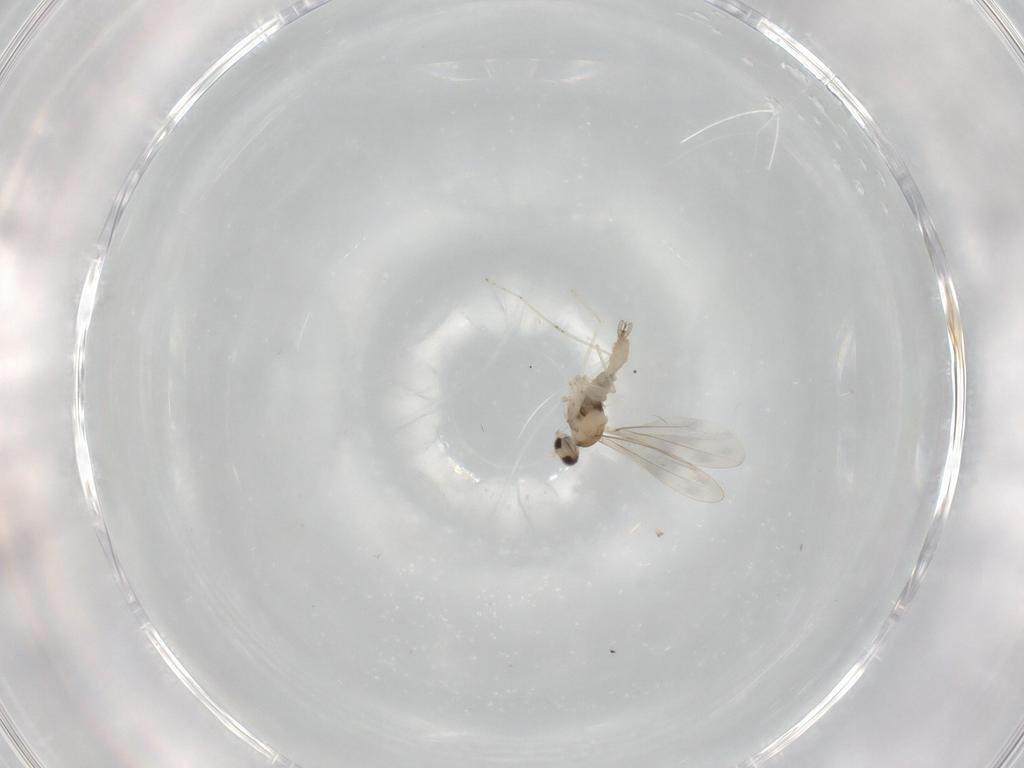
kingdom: Animalia
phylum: Arthropoda
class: Insecta
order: Diptera
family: Cecidomyiidae
